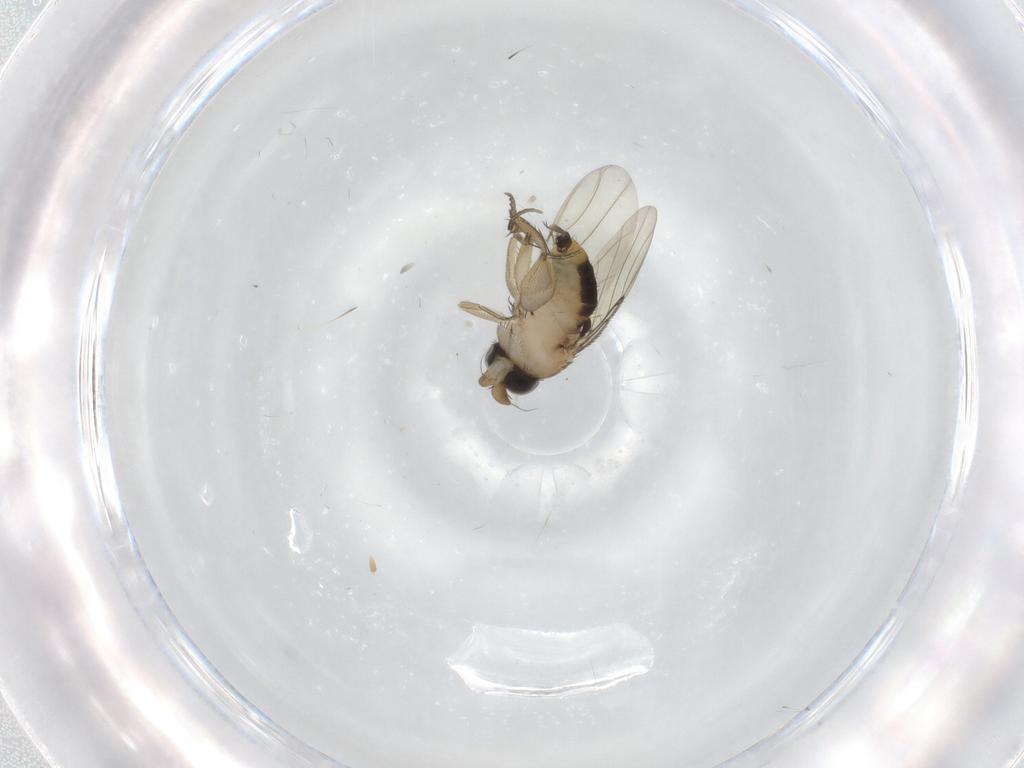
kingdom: Animalia
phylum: Arthropoda
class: Insecta
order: Diptera
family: Phoridae
